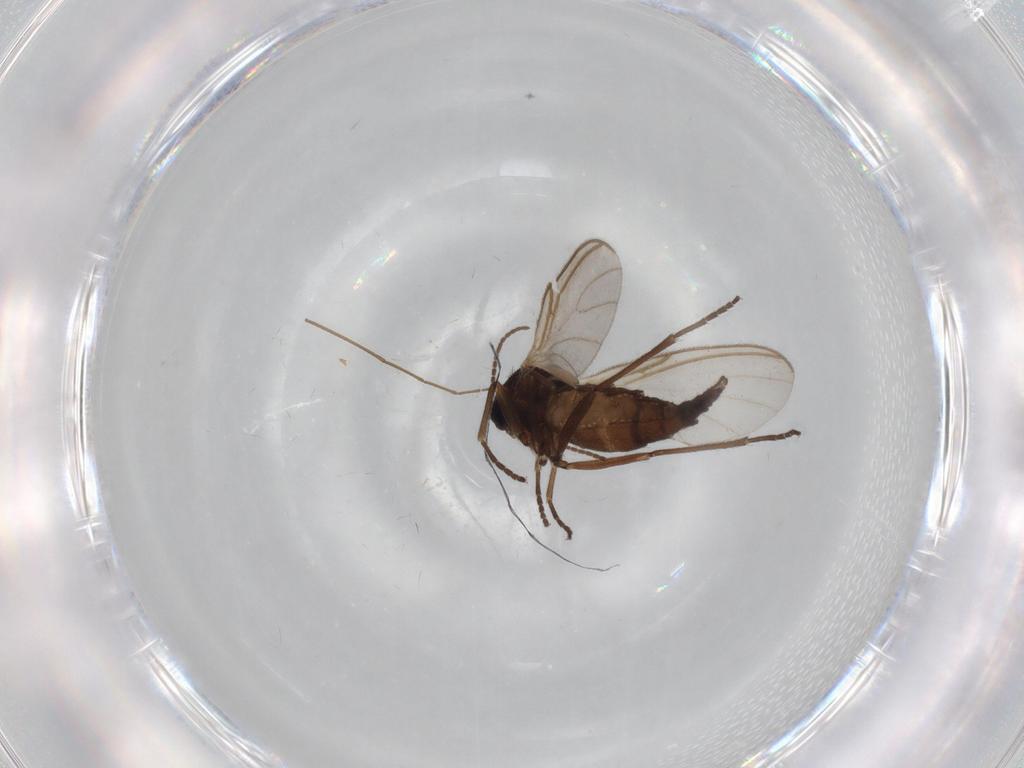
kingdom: Animalia
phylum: Arthropoda
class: Insecta
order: Diptera
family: Sciaridae
